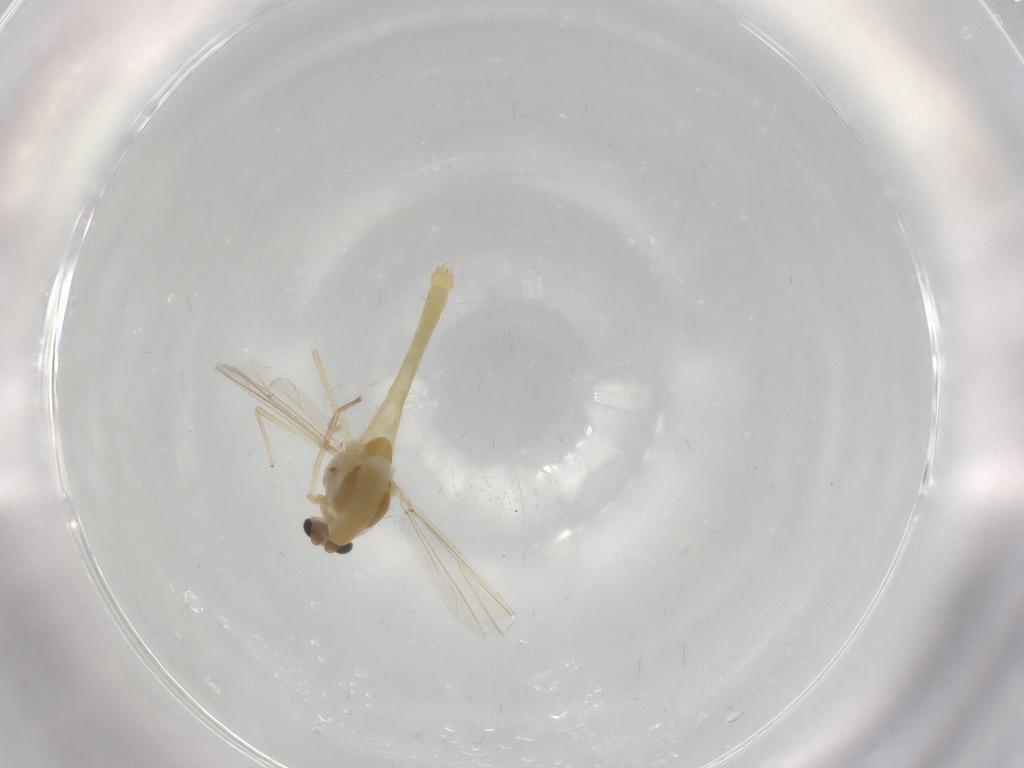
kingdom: Animalia
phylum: Arthropoda
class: Insecta
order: Diptera
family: Chironomidae
